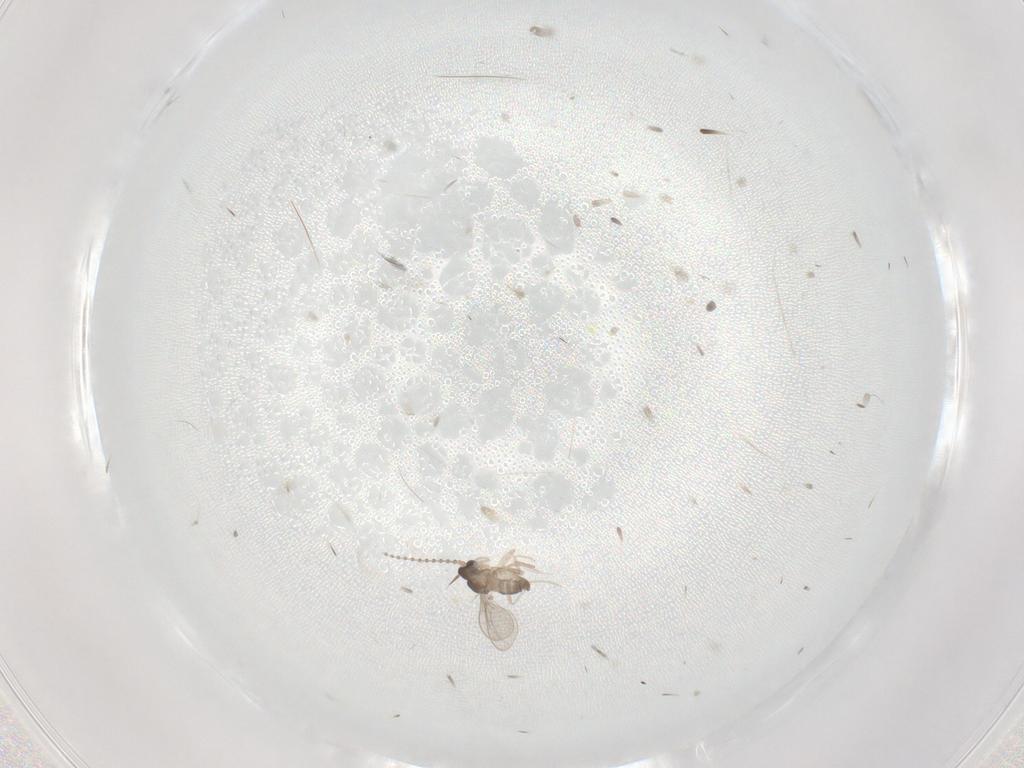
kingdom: Animalia
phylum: Arthropoda
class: Insecta
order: Diptera
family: Cecidomyiidae
